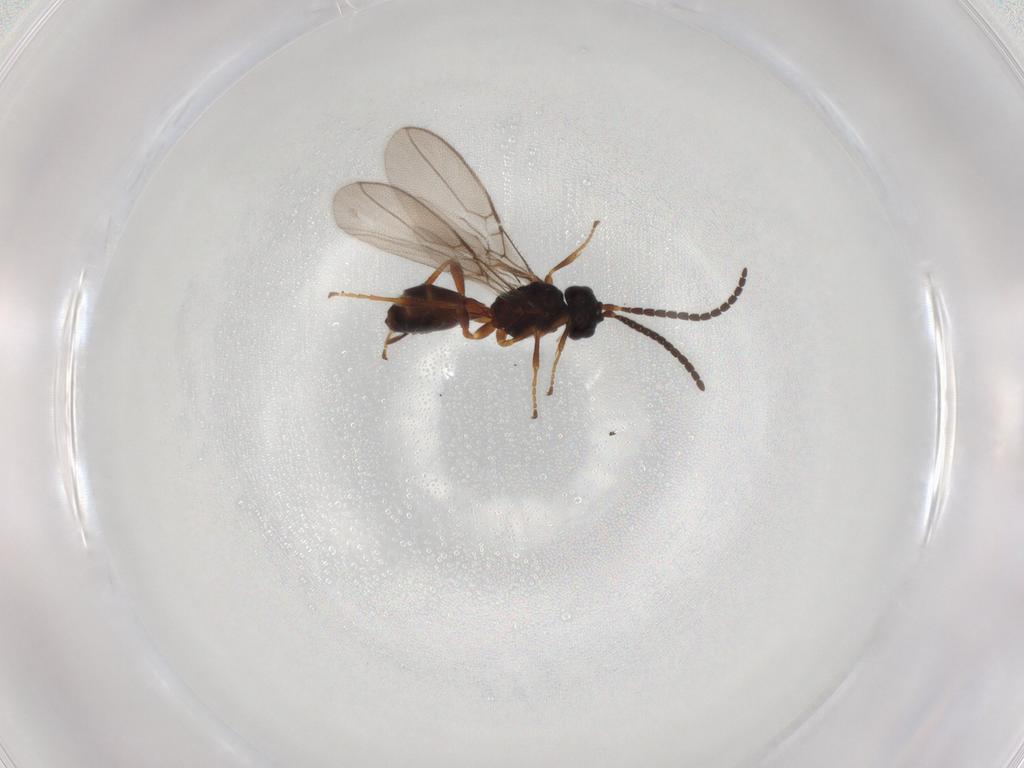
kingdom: Animalia
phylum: Arthropoda
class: Insecta
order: Hymenoptera
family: Braconidae
